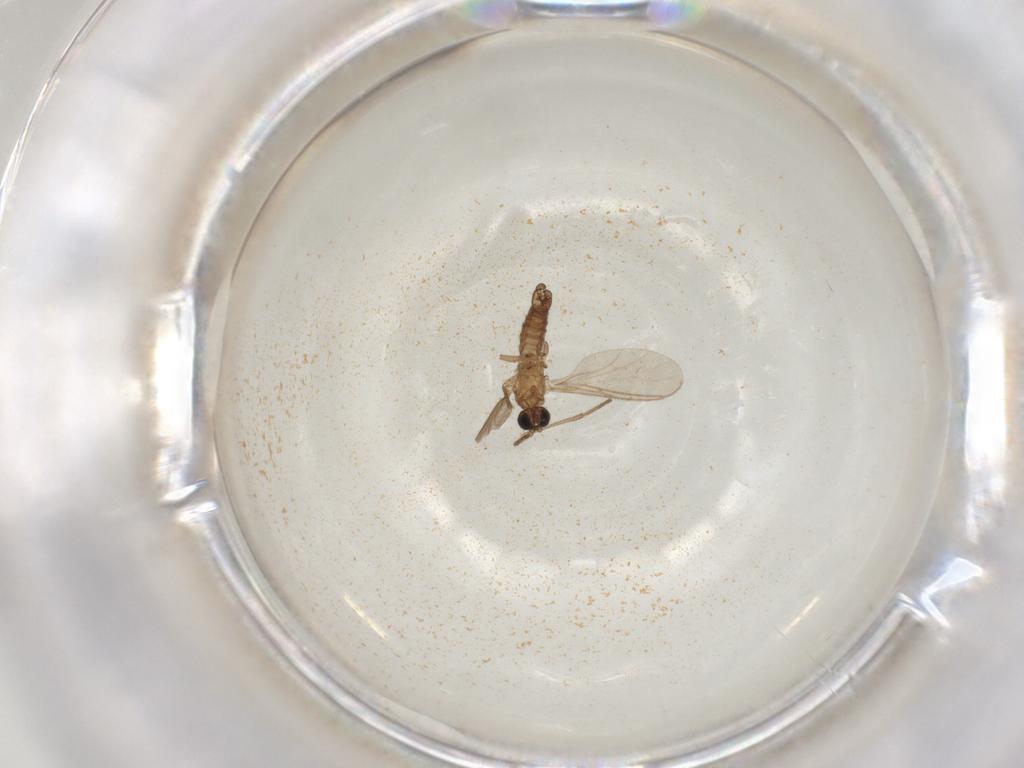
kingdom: Animalia
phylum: Arthropoda
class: Insecta
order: Diptera
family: Sciaridae
